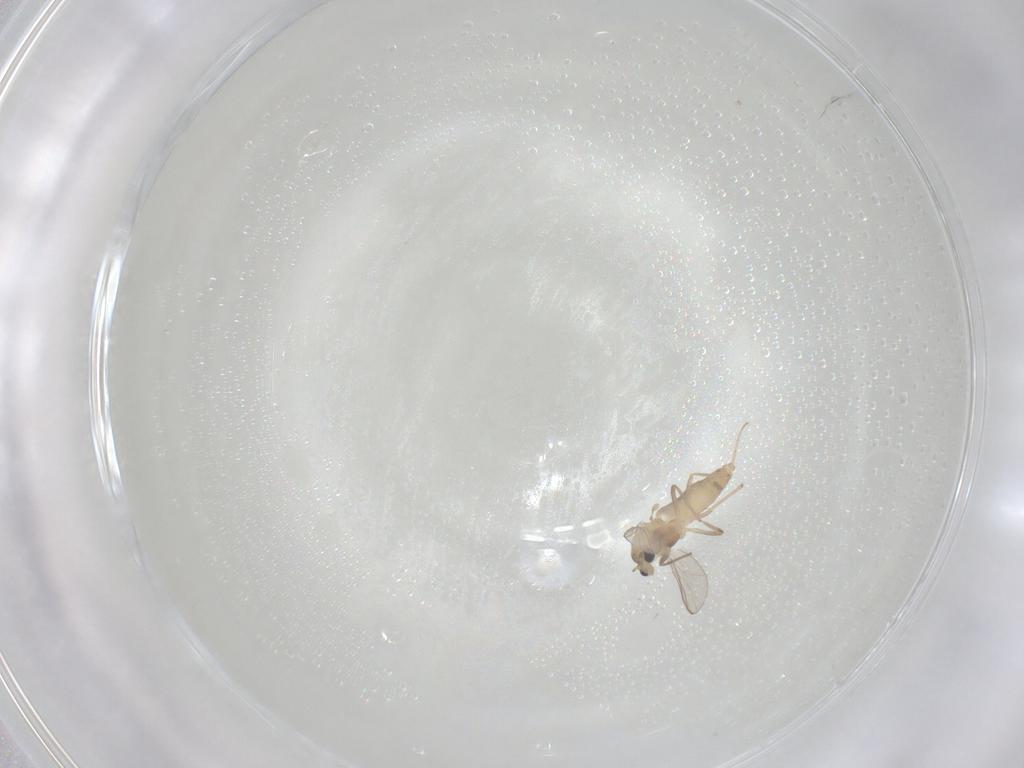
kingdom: Animalia
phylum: Arthropoda
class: Insecta
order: Diptera
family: Chironomidae
